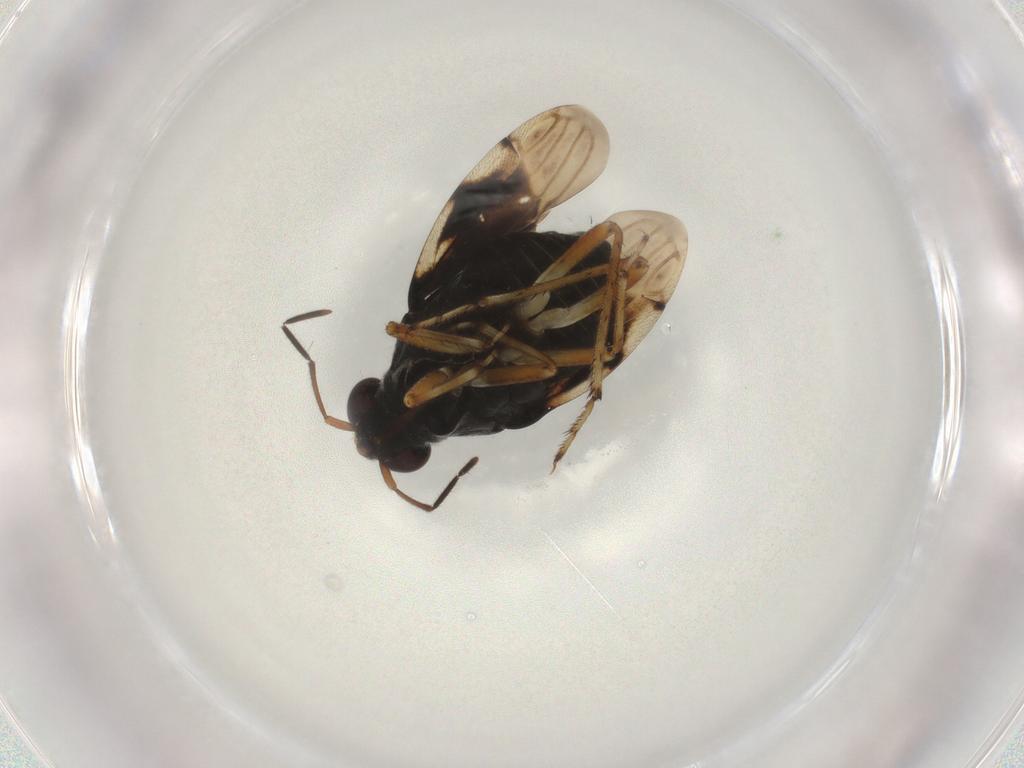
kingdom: Animalia
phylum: Arthropoda
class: Insecta
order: Hemiptera
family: Saldidae
